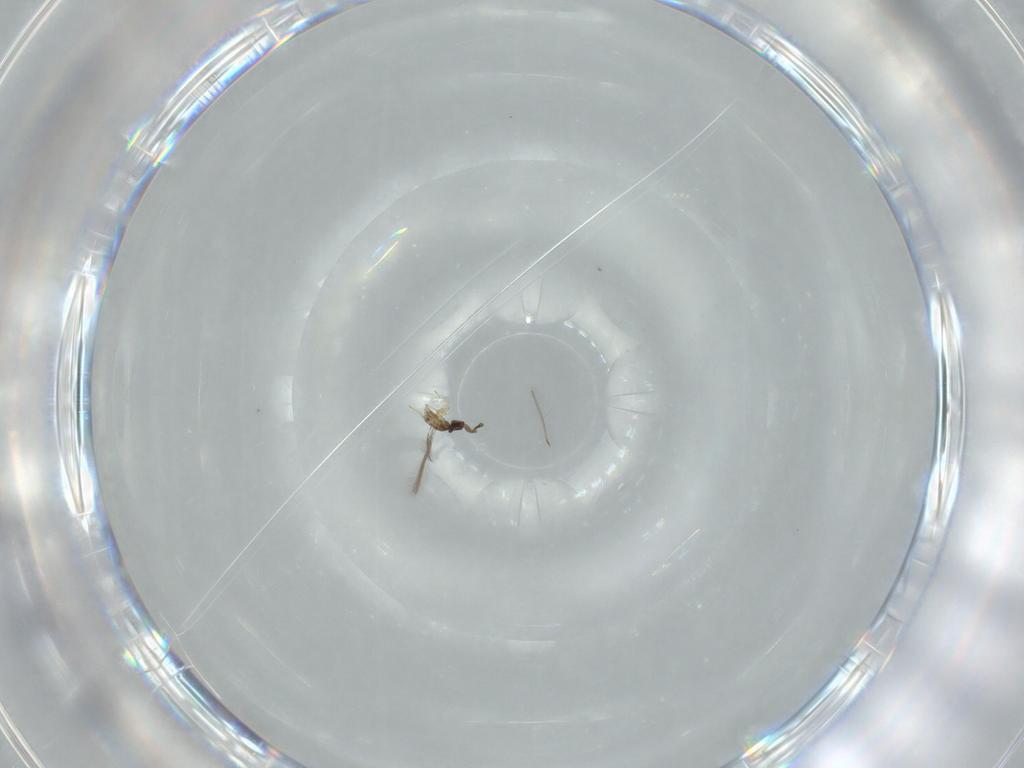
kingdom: Animalia
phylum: Arthropoda
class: Insecta
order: Hymenoptera
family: Mymaridae
